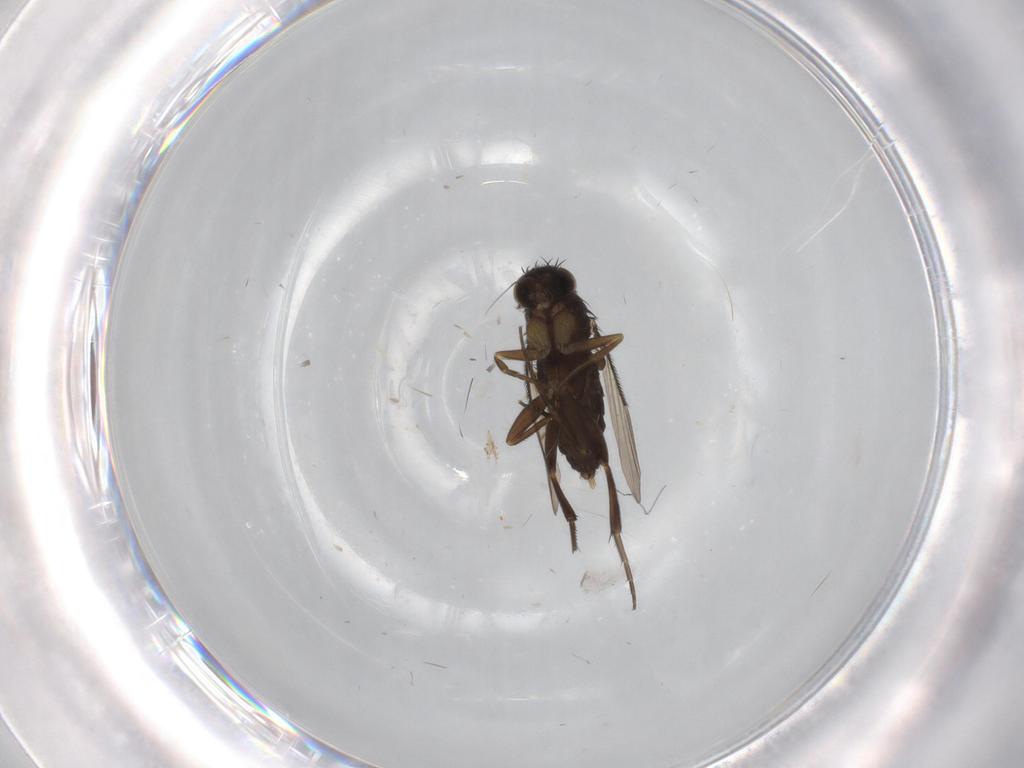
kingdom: Animalia
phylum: Arthropoda
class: Insecta
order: Diptera
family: Phoridae
